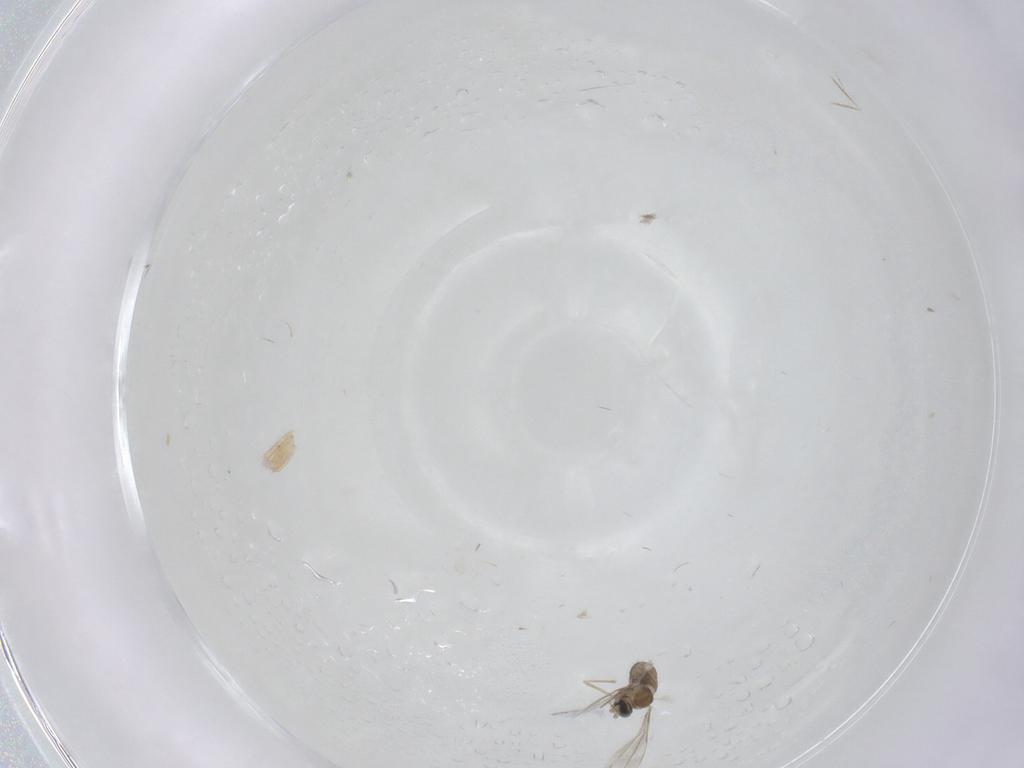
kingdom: Animalia
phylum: Arthropoda
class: Insecta
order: Diptera
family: Cecidomyiidae
